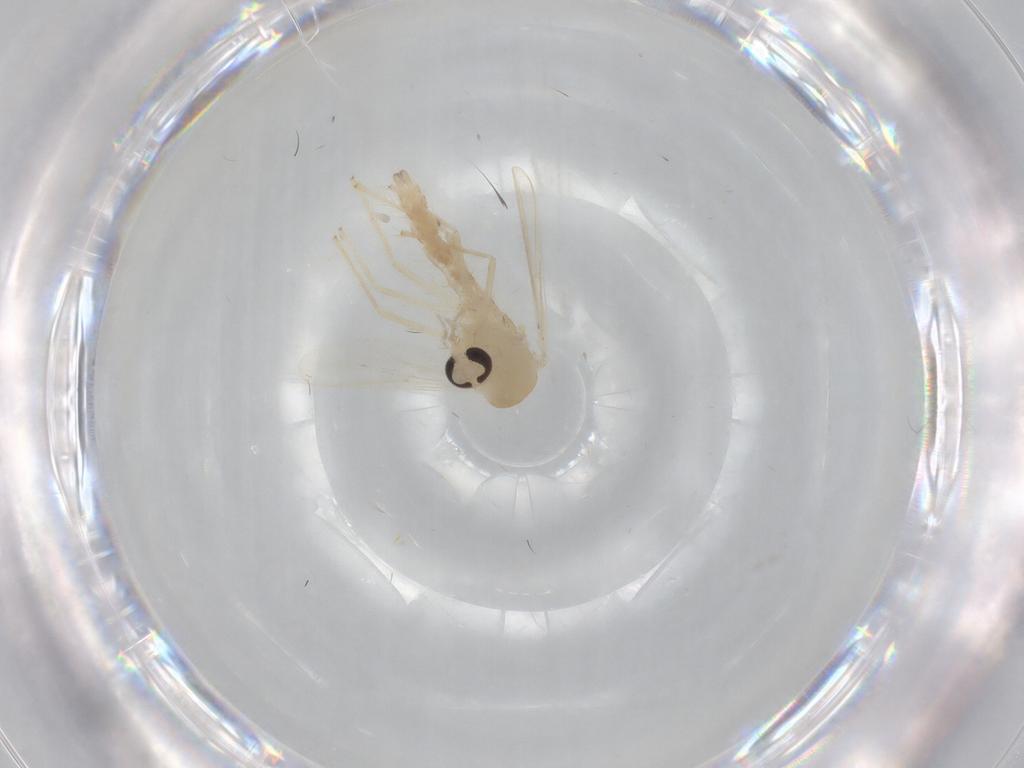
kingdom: Animalia
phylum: Arthropoda
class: Insecta
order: Diptera
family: Chironomidae
